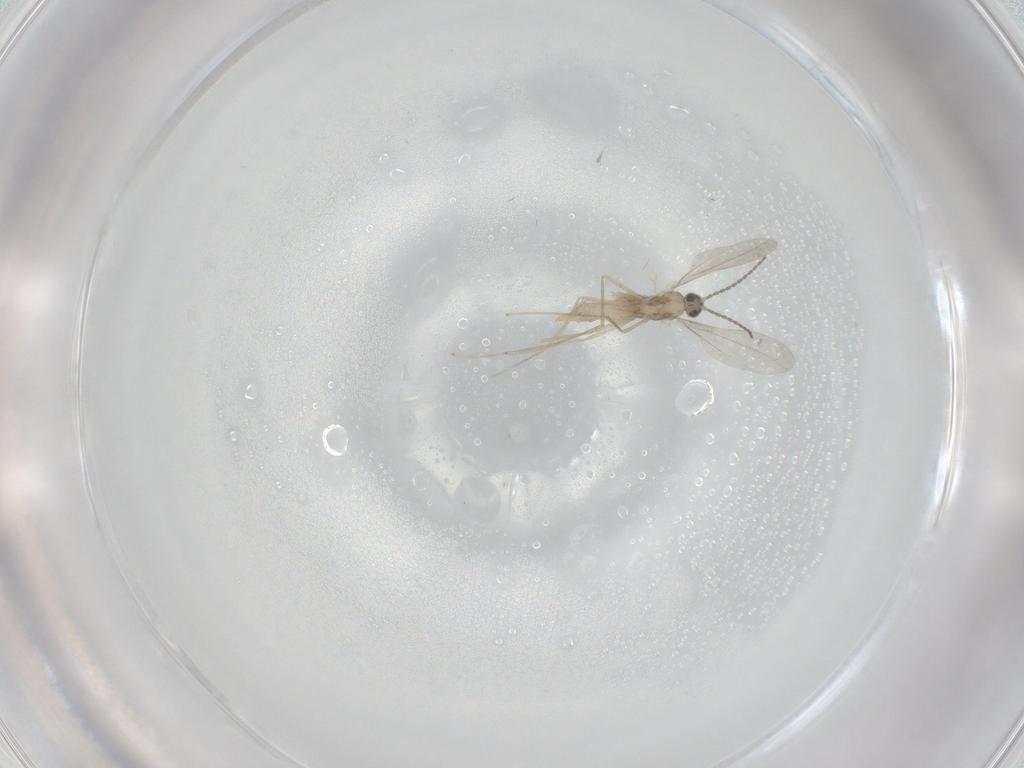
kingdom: Animalia
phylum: Arthropoda
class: Insecta
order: Diptera
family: Cecidomyiidae
